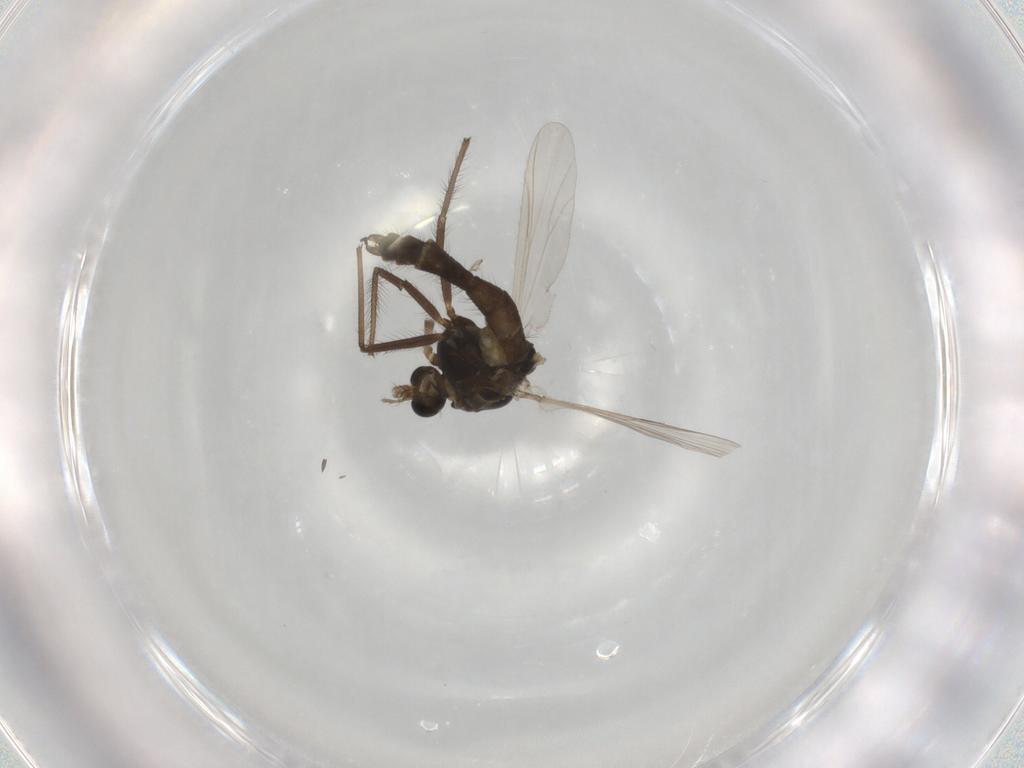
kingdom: Animalia
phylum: Arthropoda
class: Insecta
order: Diptera
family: Chironomidae
